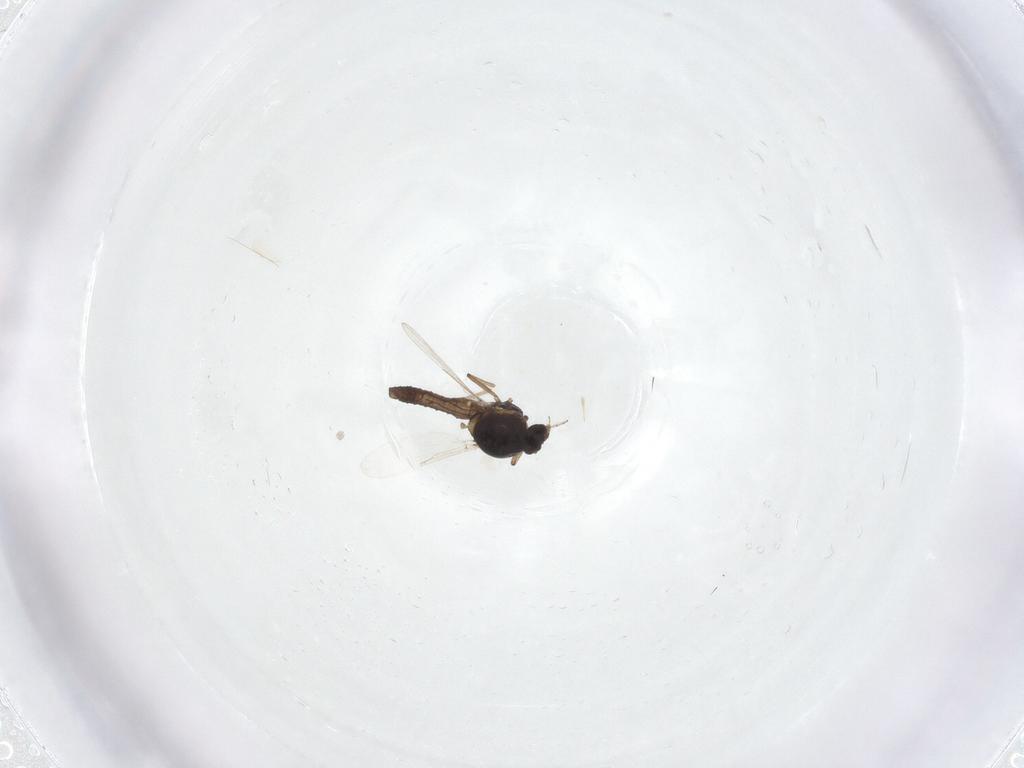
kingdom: Animalia
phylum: Arthropoda
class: Insecta
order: Diptera
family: Ceratopogonidae
